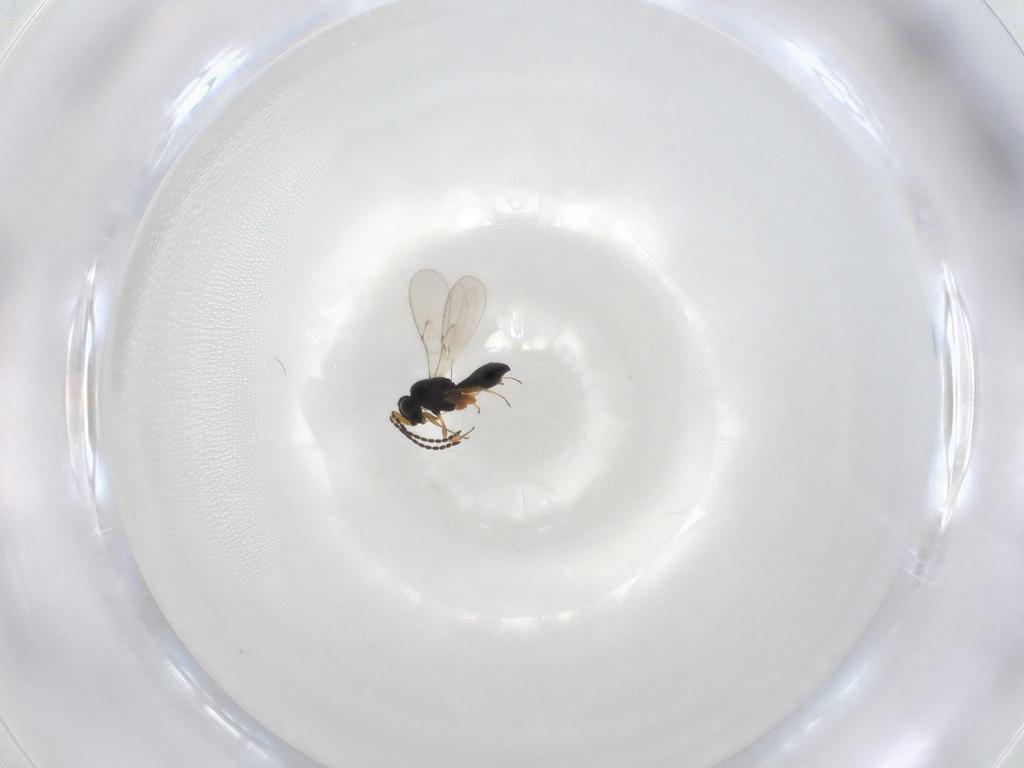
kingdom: Animalia
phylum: Arthropoda
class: Insecta
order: Hymenoptera
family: Scelionidae
